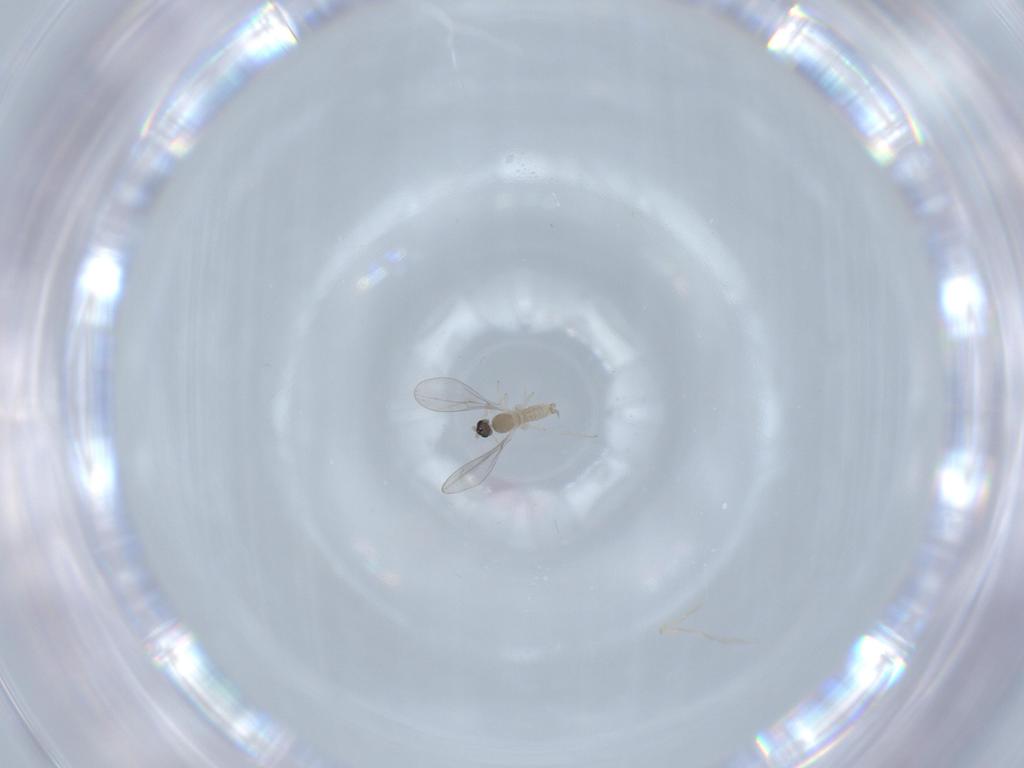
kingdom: Animalia
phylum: Arthropoda
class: Insecta
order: Diptera
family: Cecidomyiidae
